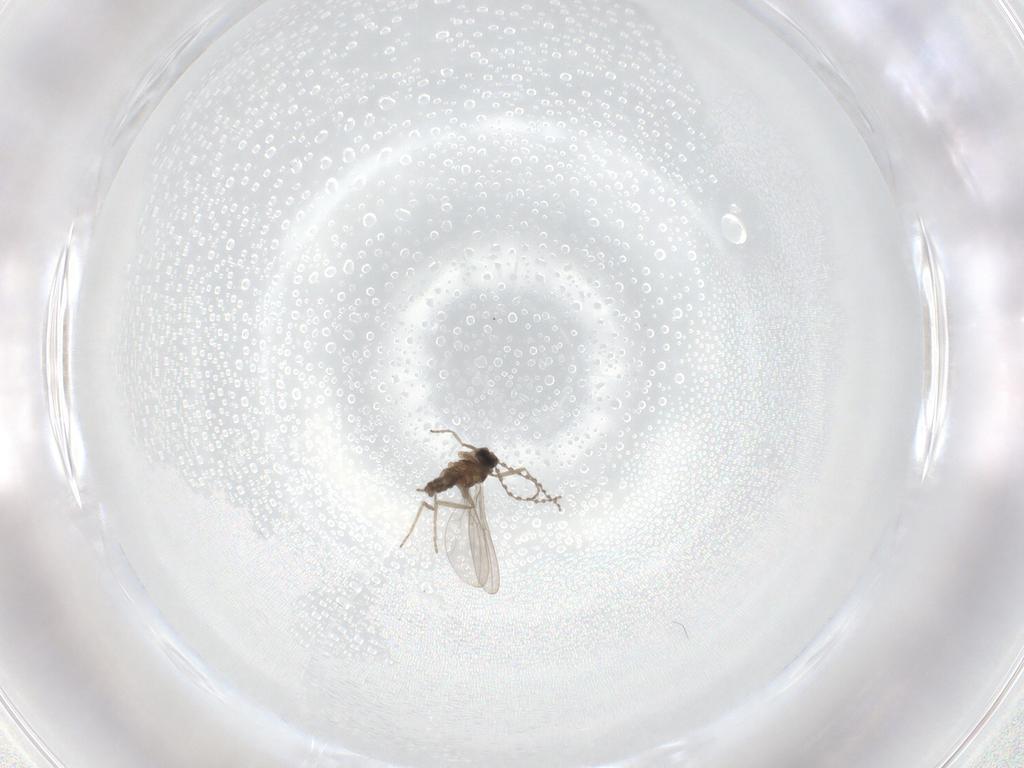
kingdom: Animalia
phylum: Arthropoda
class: Insecta
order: Diptera
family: Cecidomyiidae
